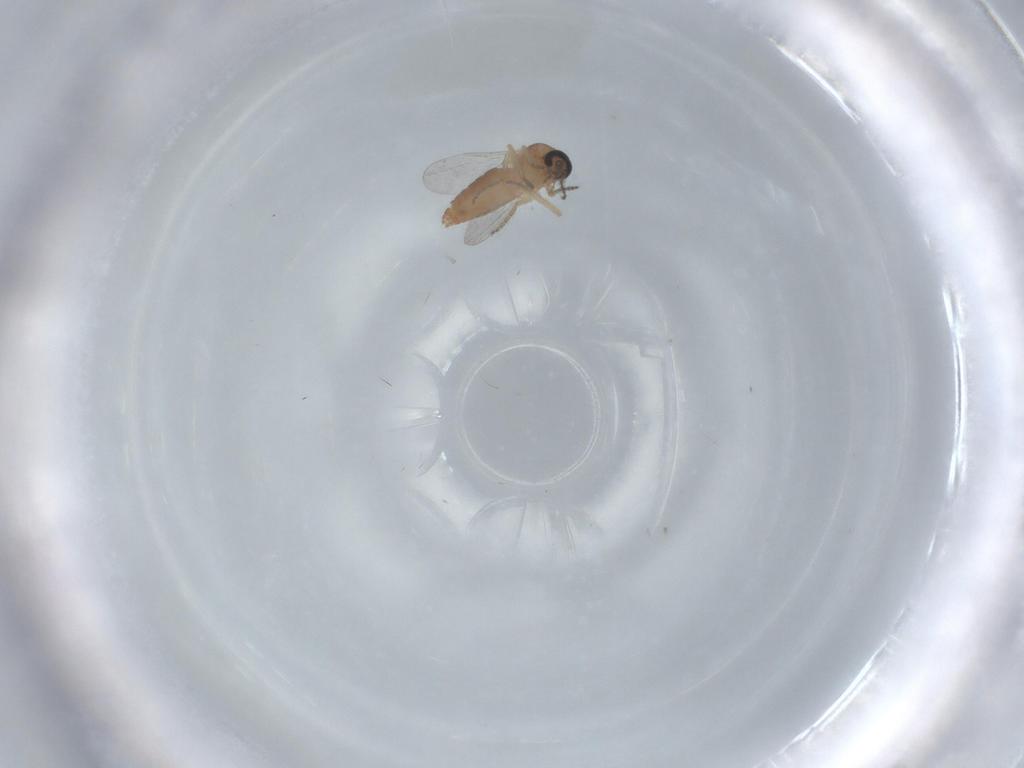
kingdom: Animalia
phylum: Arthropoda
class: Insecta
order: Diptera
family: Ceratopogonidae
